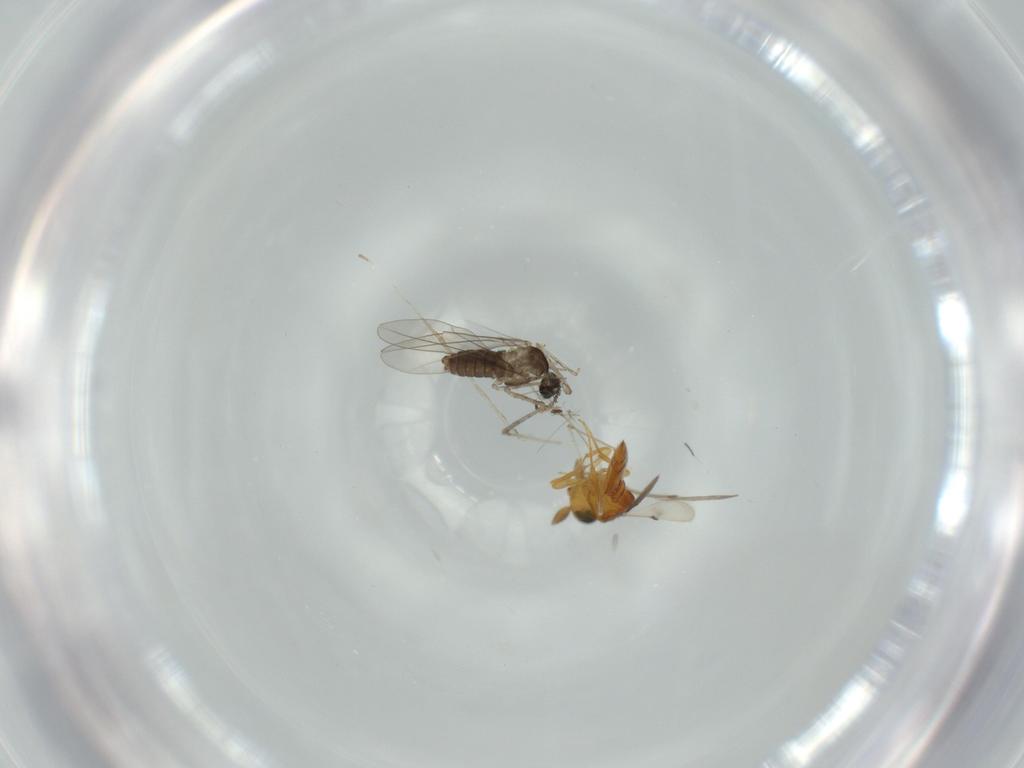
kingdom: Animalia
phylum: Arthropoda
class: Insecta
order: Hymenoptera
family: Scelionidae
